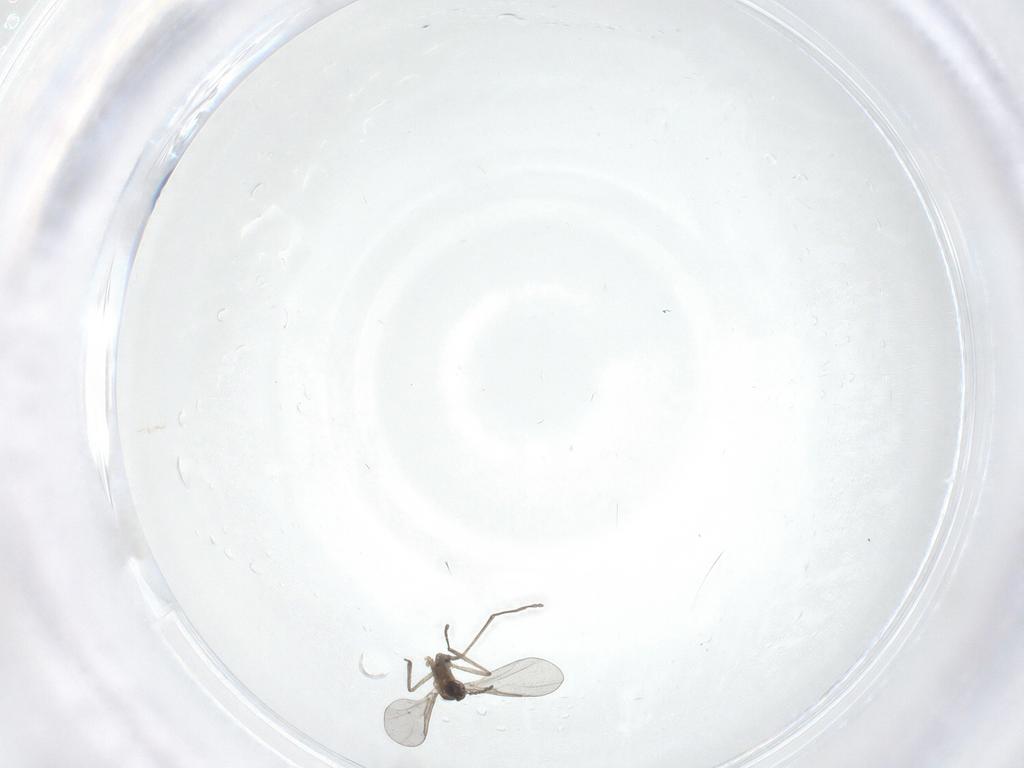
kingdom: Animalia
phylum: Arthropoda
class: Insecta
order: Diptera
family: Cecidomyiidae
